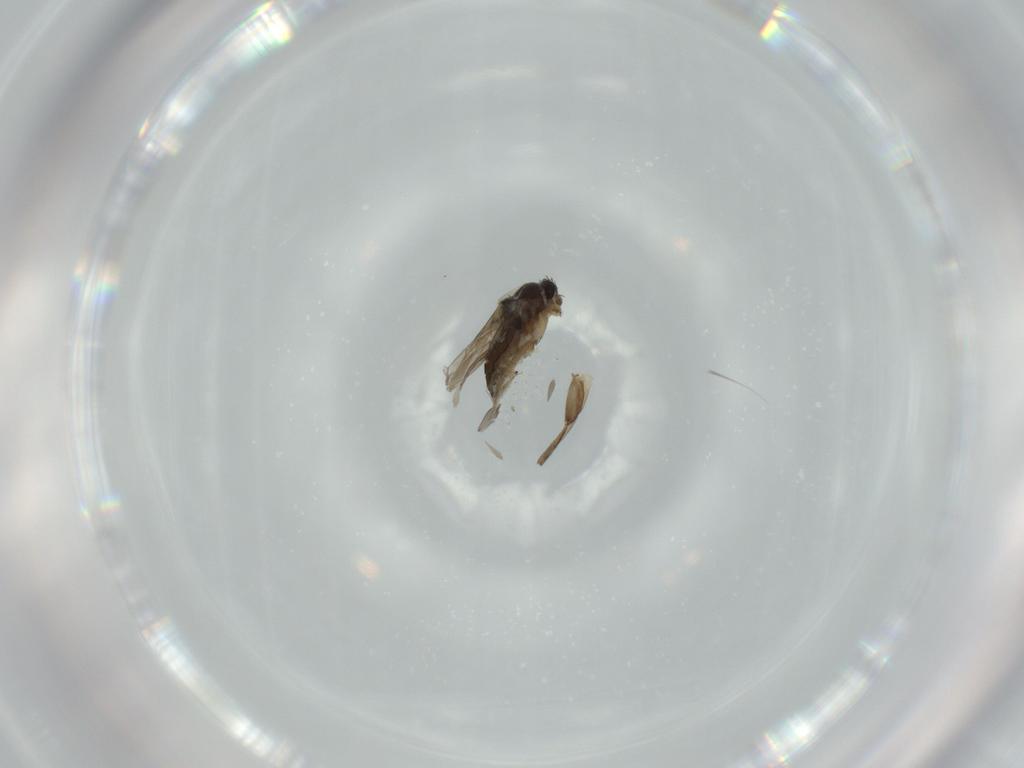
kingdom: Animalia
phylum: Arthropoda
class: Insecta
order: Diptera
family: Phoridae
